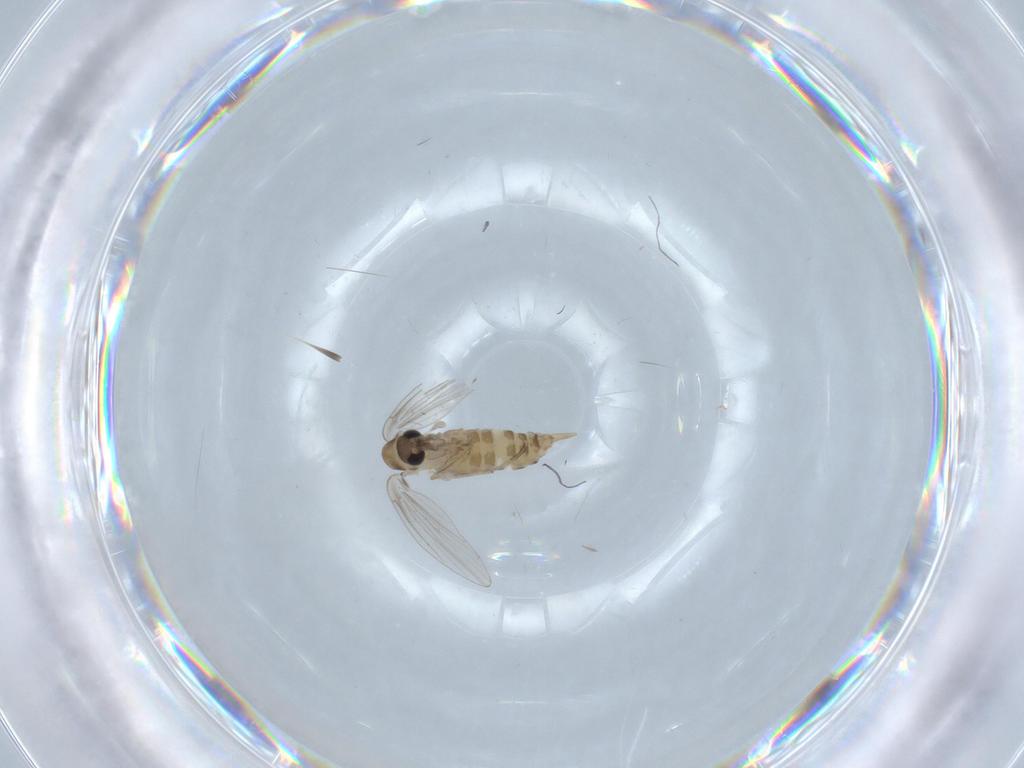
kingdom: Animalia
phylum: Arthropoda
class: Insecta
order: Diptera
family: Psychodidae
